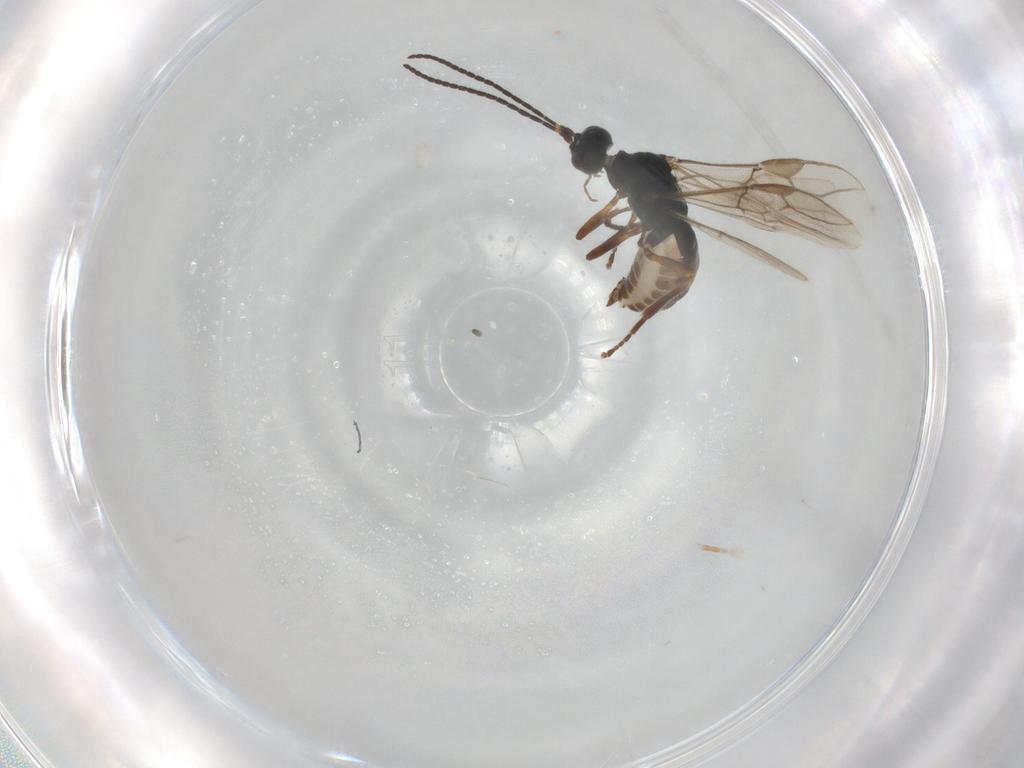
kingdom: Animalia
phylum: Arthropoda
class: Insecta
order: Hymenoptera
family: Braconidae
